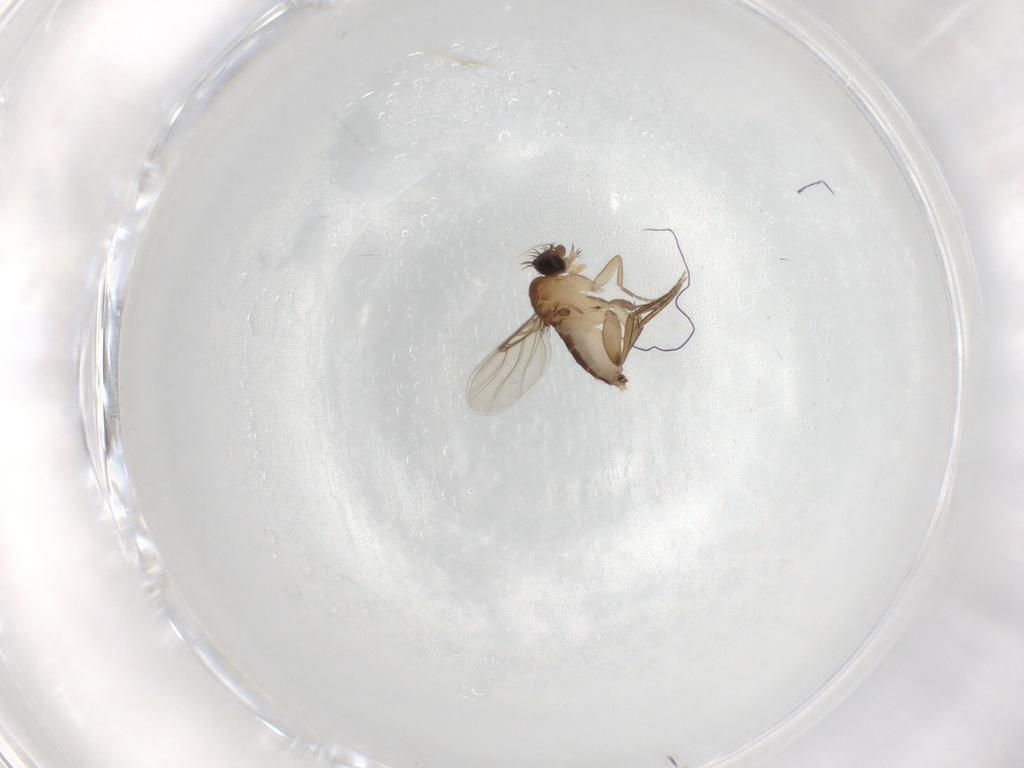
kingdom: Animalia
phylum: Arthropoda
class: Insecta
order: Diptera
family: Phoridae
